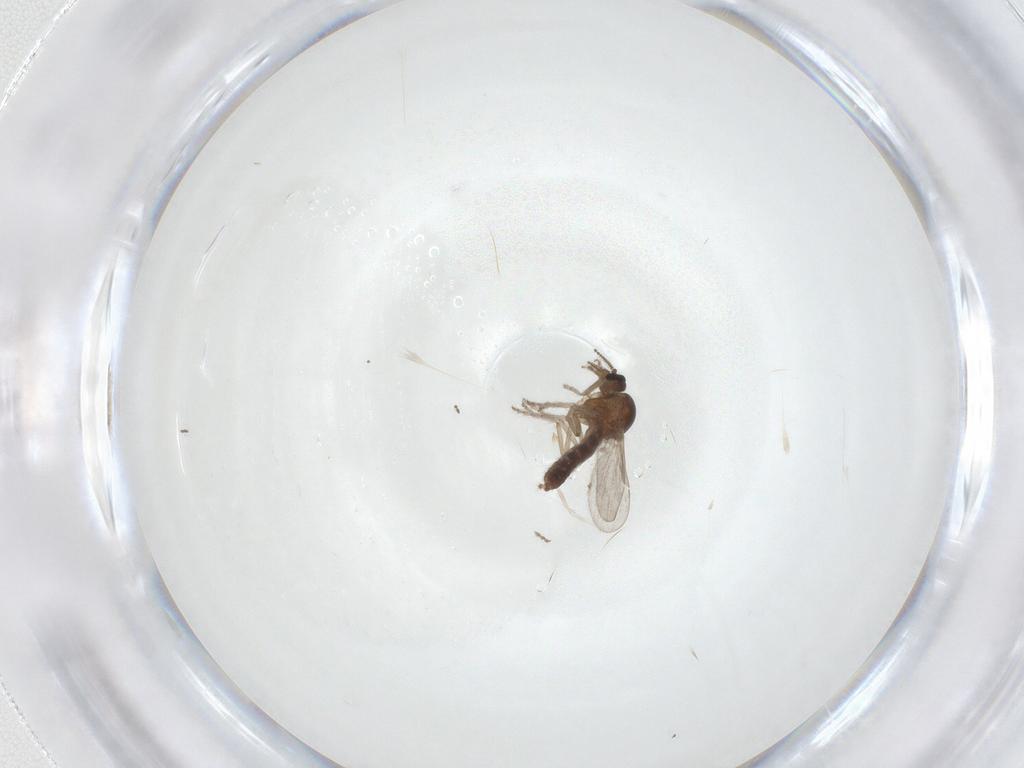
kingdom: Animalia
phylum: Arthropoda
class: Insecta
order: Diptera
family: Ceratopogonidae
